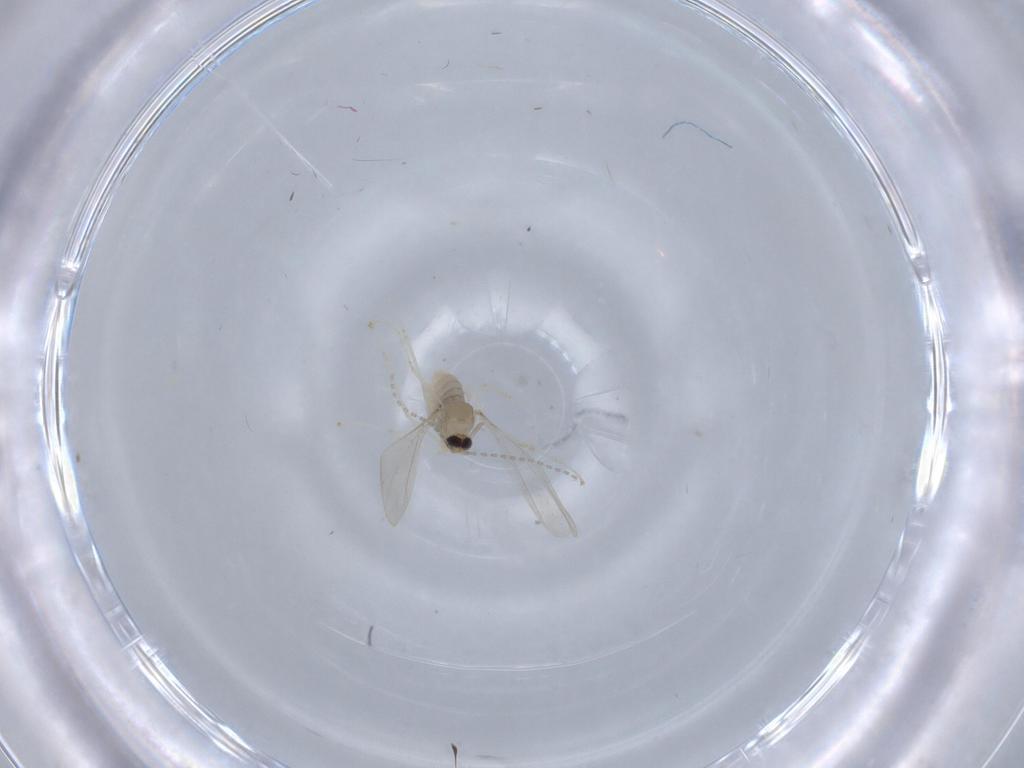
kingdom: Animalia
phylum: Arthropoda
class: Insecta
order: Diptera
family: Cecidomyiidae
